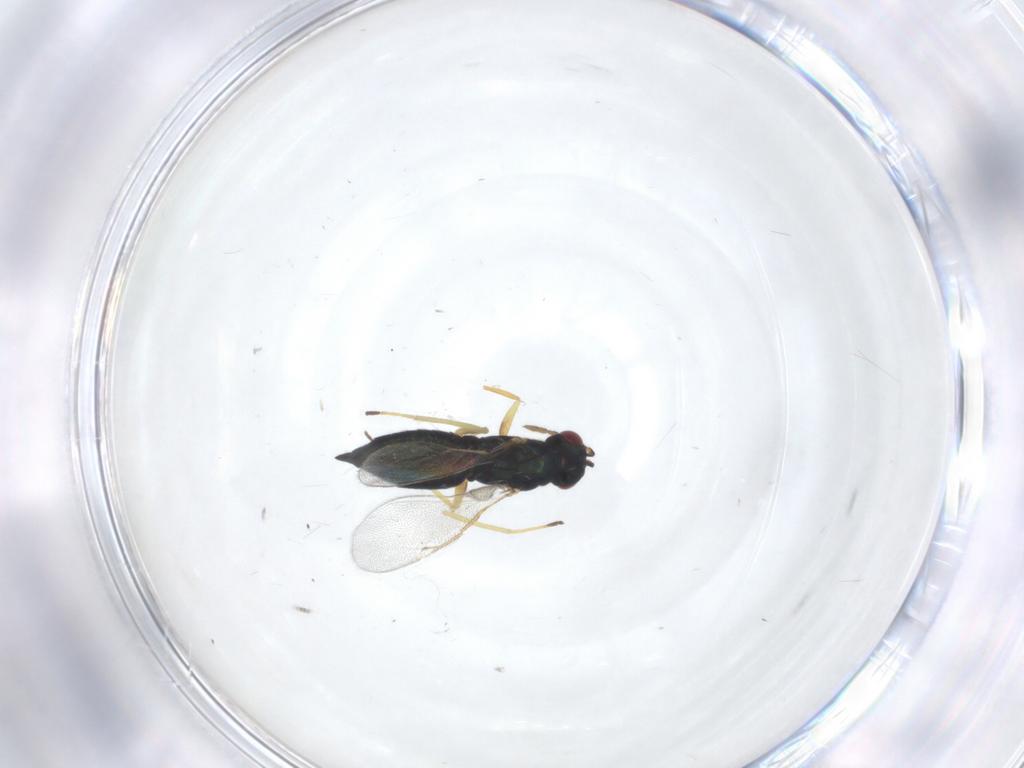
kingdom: Animalia
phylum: Arthropoda
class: Insecta
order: Hymenoptera
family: Eulophidae
